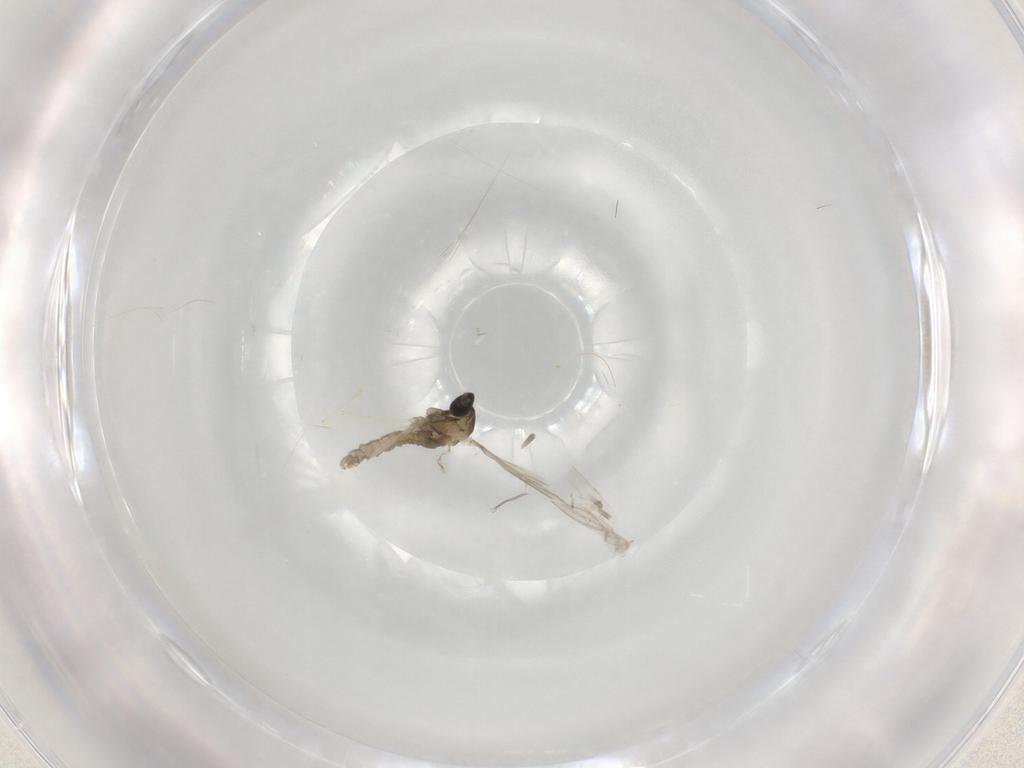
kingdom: Animalia
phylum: Arthropoda
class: Insecta
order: Diptera
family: Cecidomyiidae
